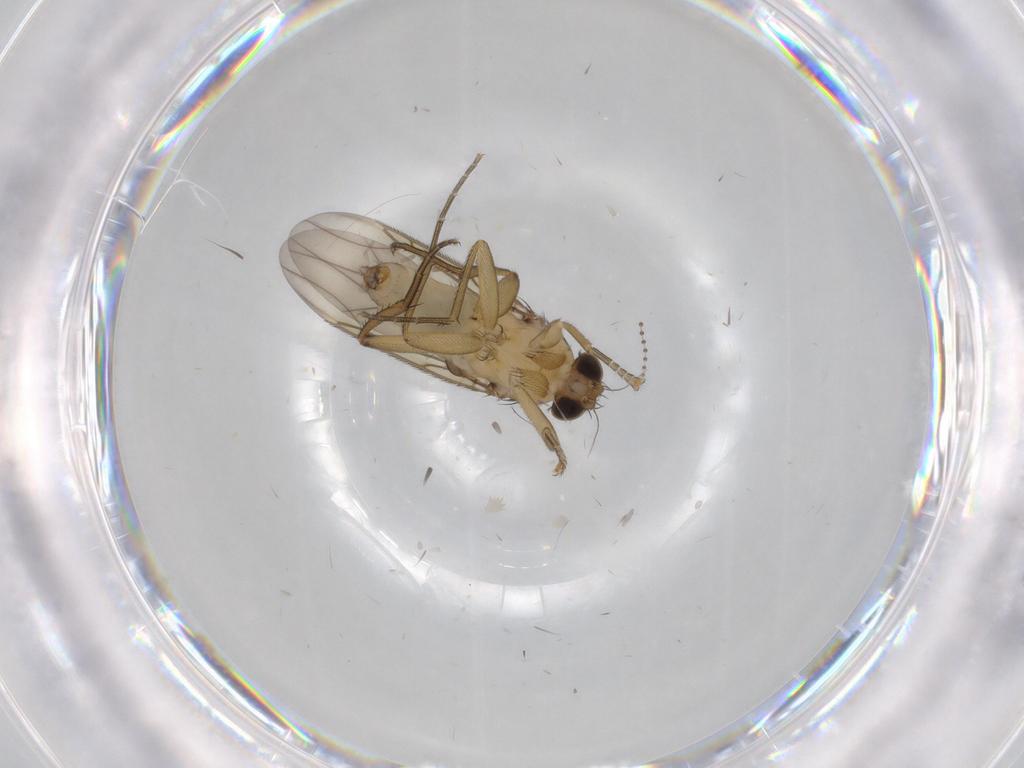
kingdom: Animalia
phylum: Arthropoda
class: Insecta
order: Diptera
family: Phoridae
